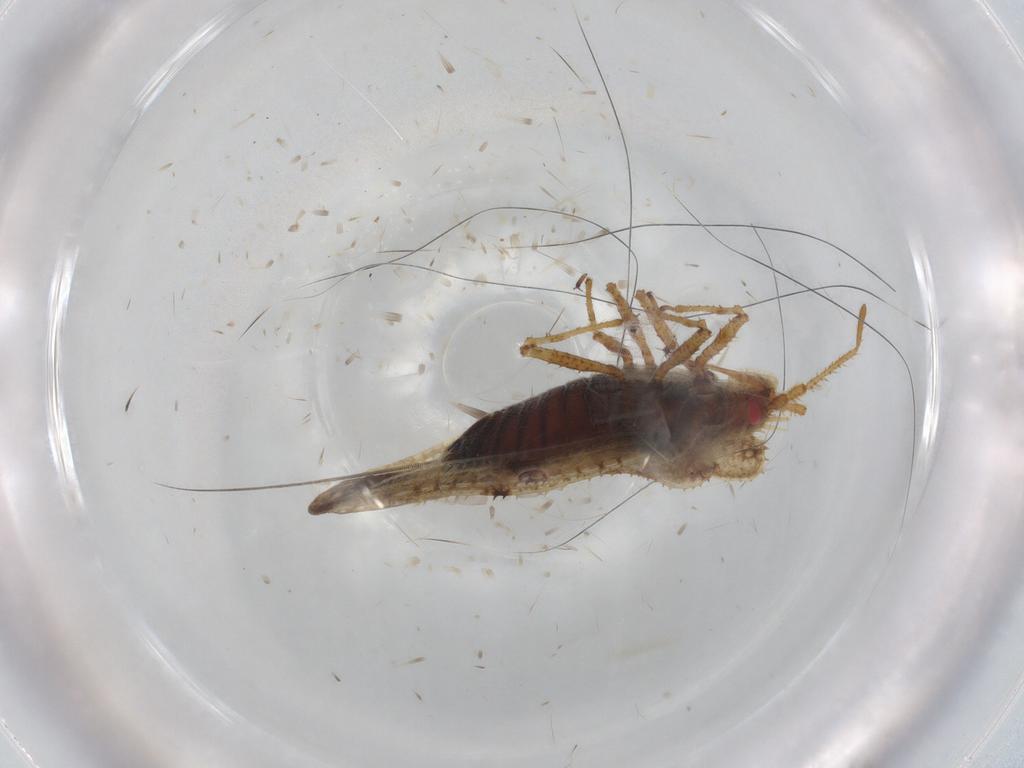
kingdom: Animalia
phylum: Arthropoda
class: Insecta
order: Hemiptera
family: Tingidae
